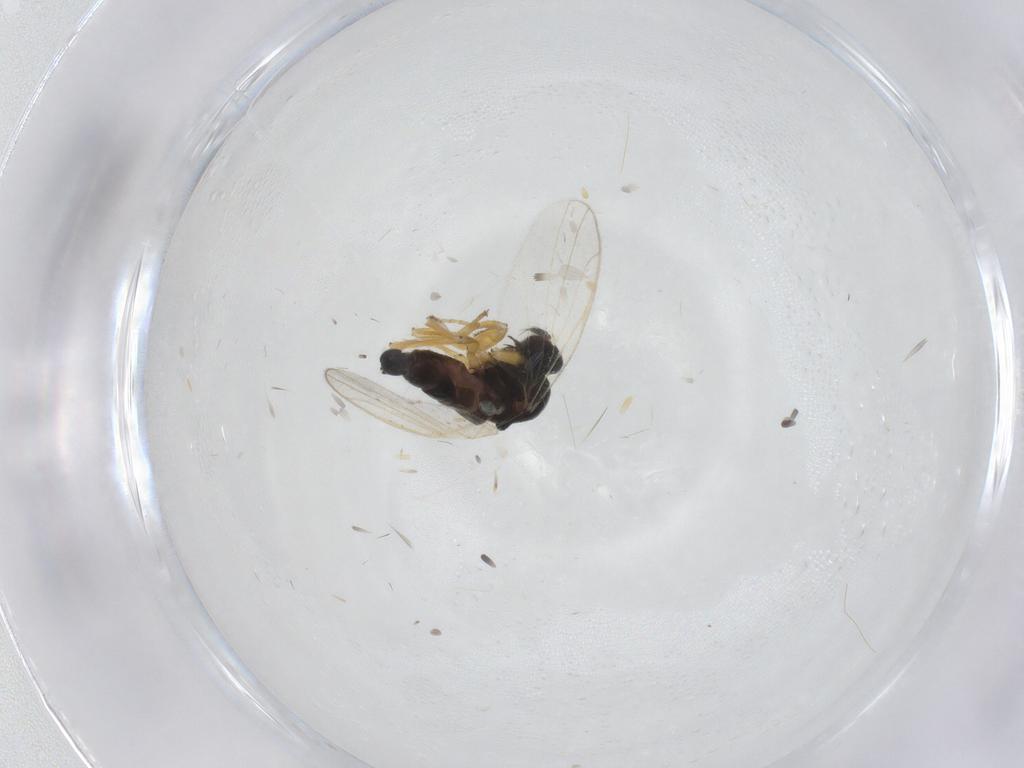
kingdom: Animalia
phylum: Arthropoda
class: Insecta
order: Diptera
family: Hybotidae
